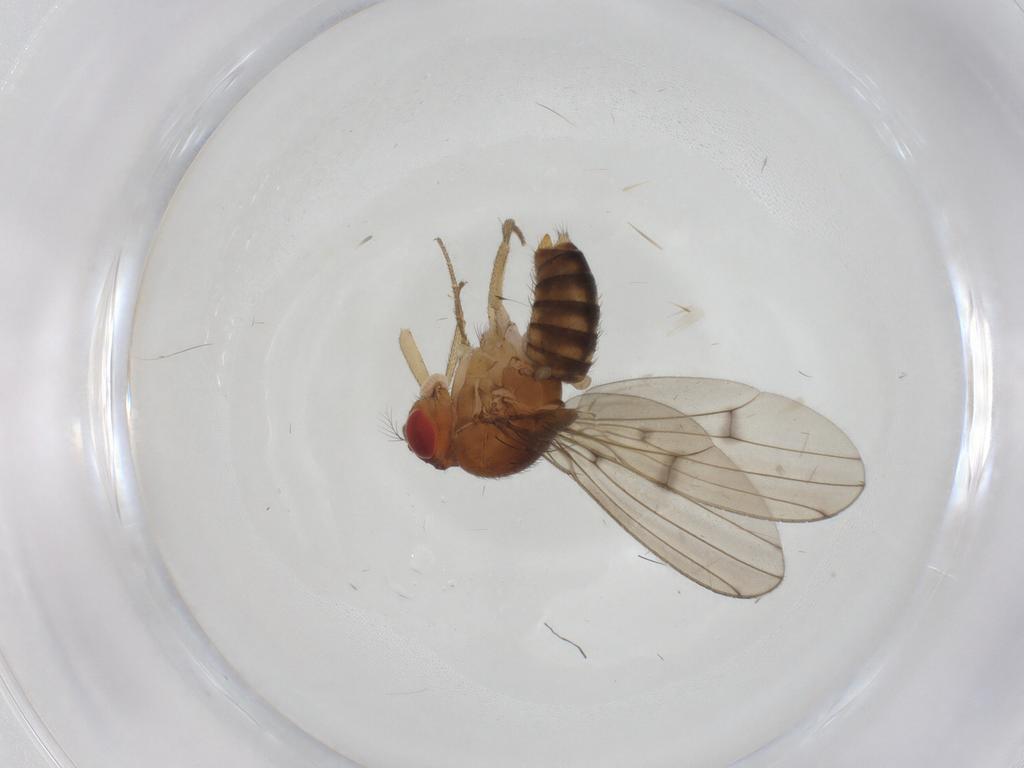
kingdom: Animalia
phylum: Arthropoda
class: Insecta
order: Diptera
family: Drosophilidae
